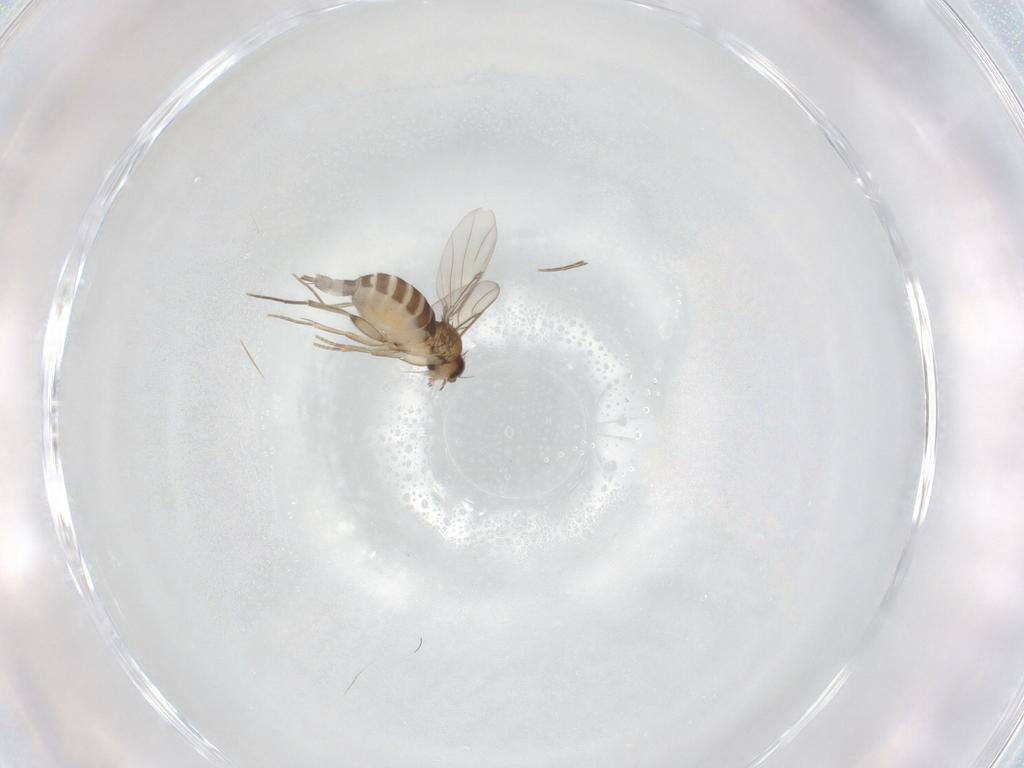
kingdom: Animalia
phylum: Arthropoda
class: Insecta
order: Diptera
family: Phoridae
